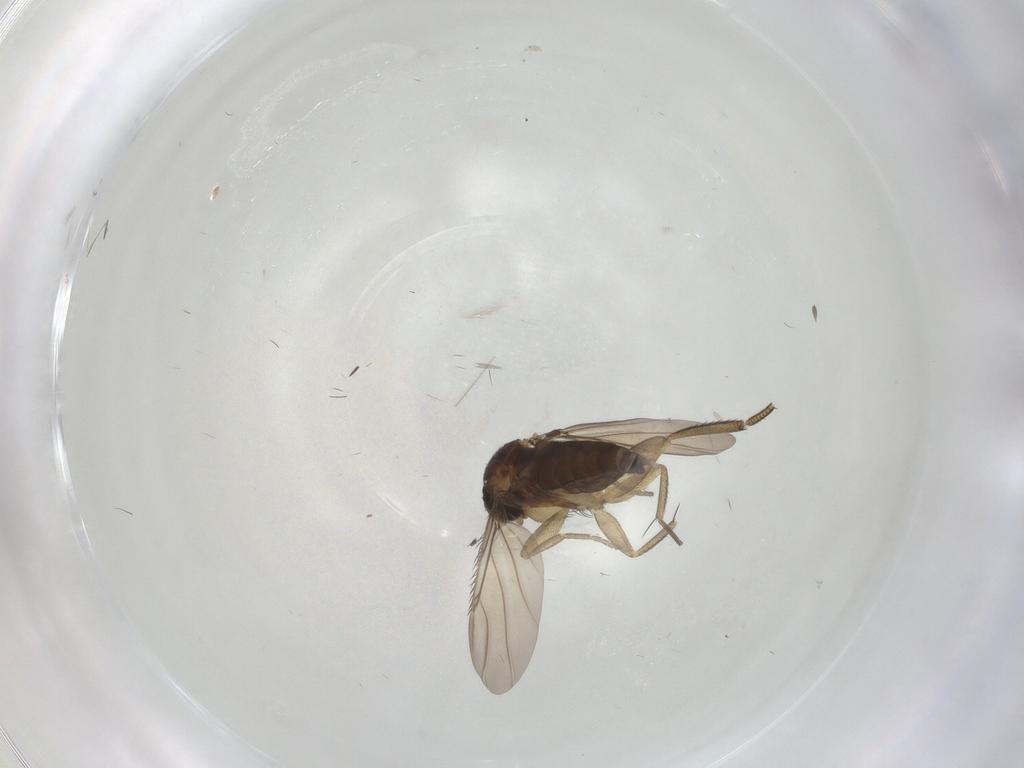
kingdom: Animalia
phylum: Arthropoda
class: Insecta
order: Diptera
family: Phoridae
